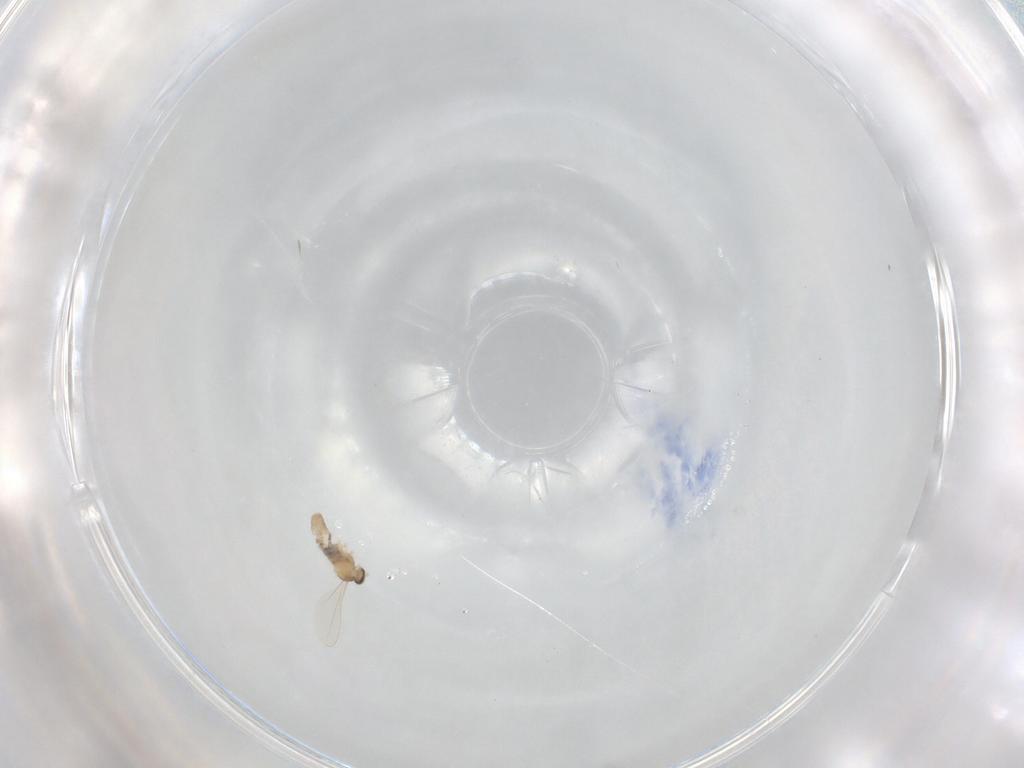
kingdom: Animalia
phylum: Arthropoda
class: Insecta
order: Diptera
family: Cecidomyiidae
